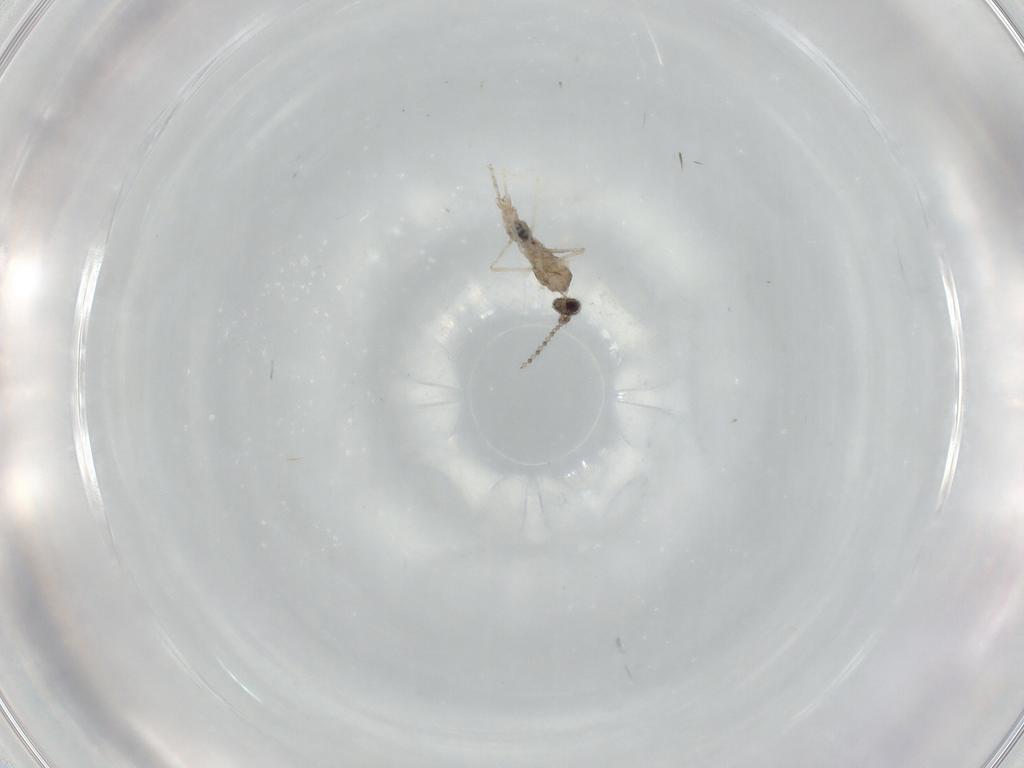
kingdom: Animalia
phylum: Arthropoda
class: Insecta
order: Diptera
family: Cecidomyiidae
